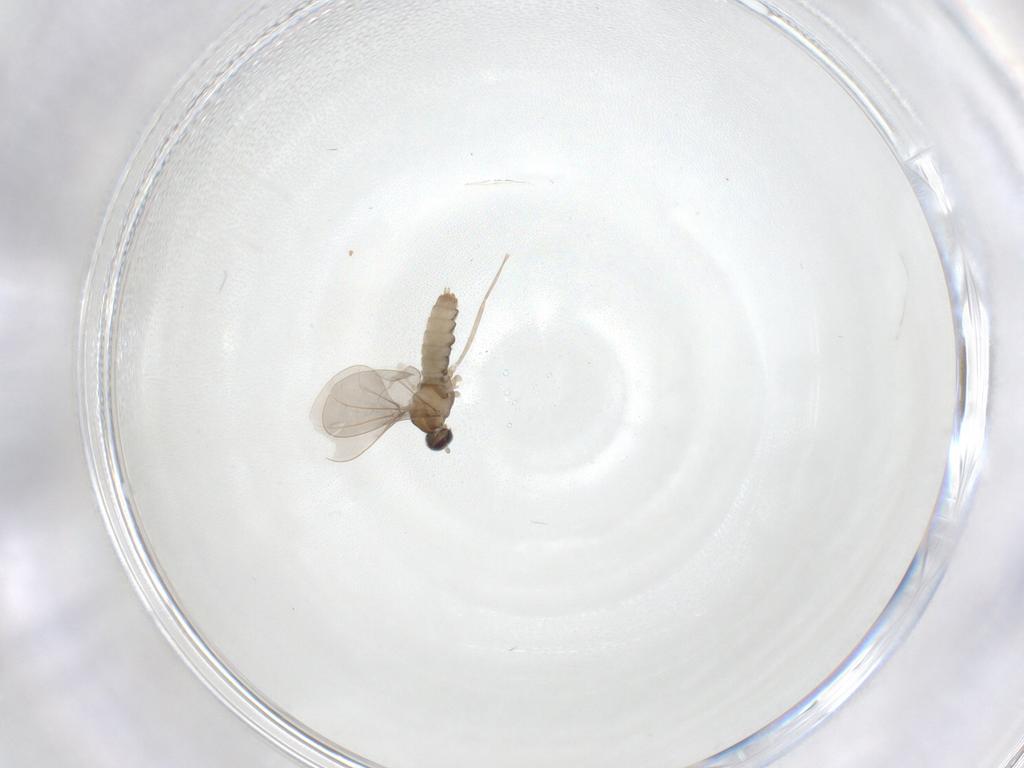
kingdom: Animalia
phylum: Arthropoda
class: Insecta
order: Diptera
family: Cecidomyiidae
